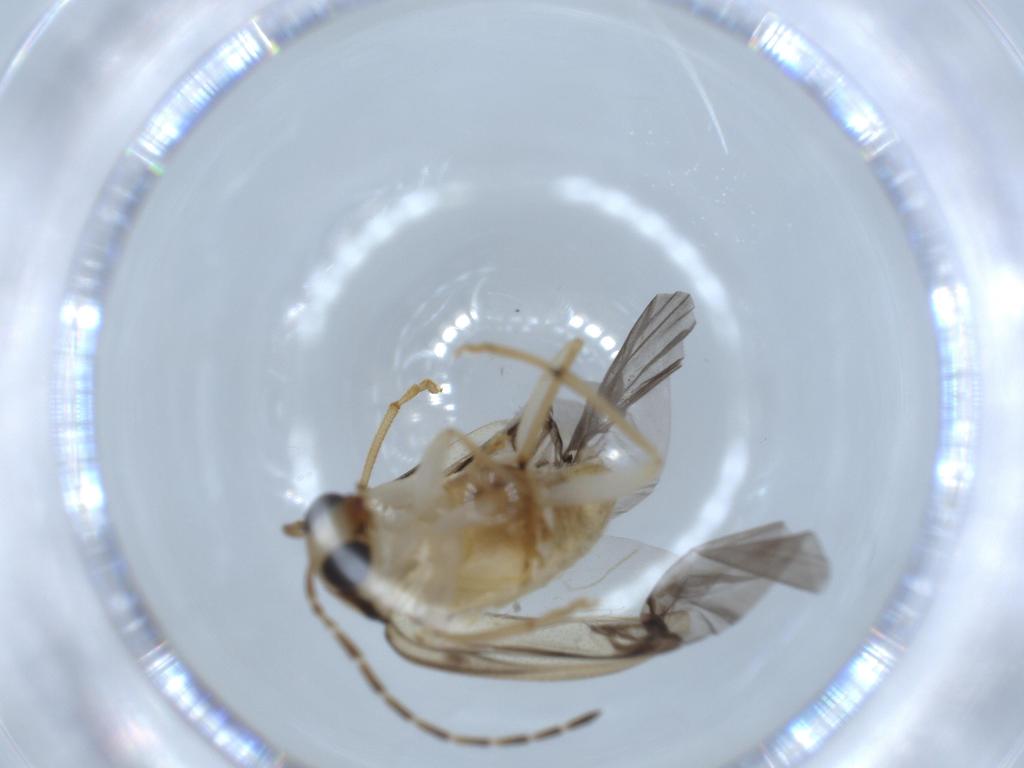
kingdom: Animalia
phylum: Arthropoda
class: Insecta
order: Coleoptera
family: Chrysomelidae
